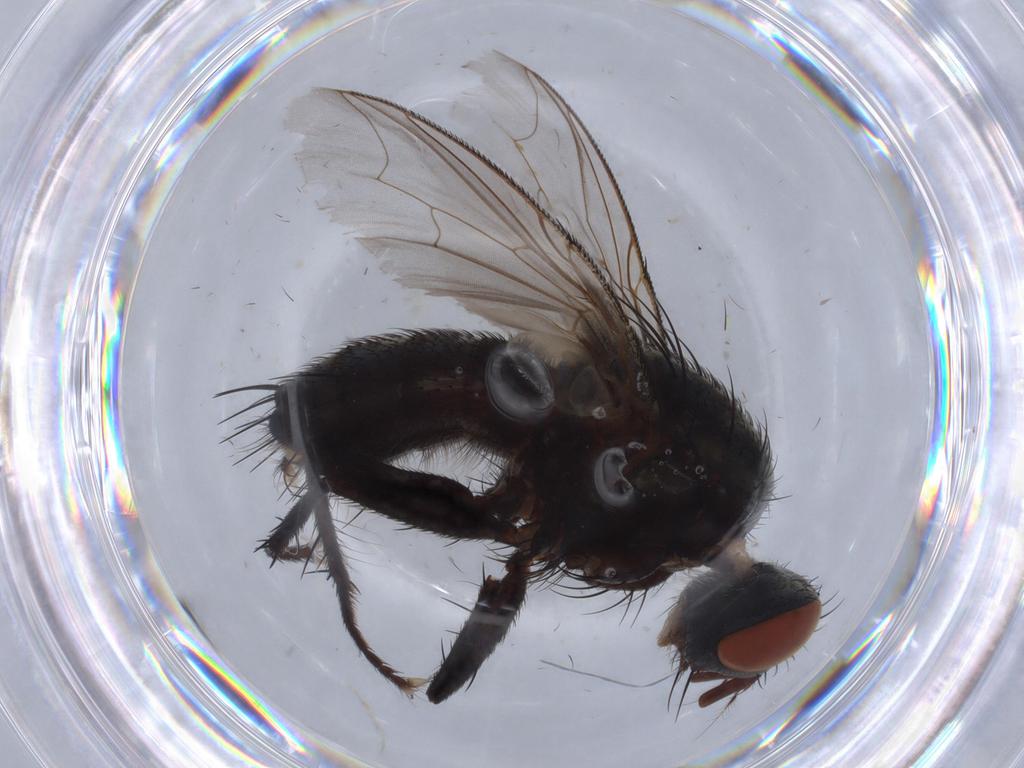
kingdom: Animalia
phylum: Arthropoda
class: Insecta
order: Diptera
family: Sarcophagidae
